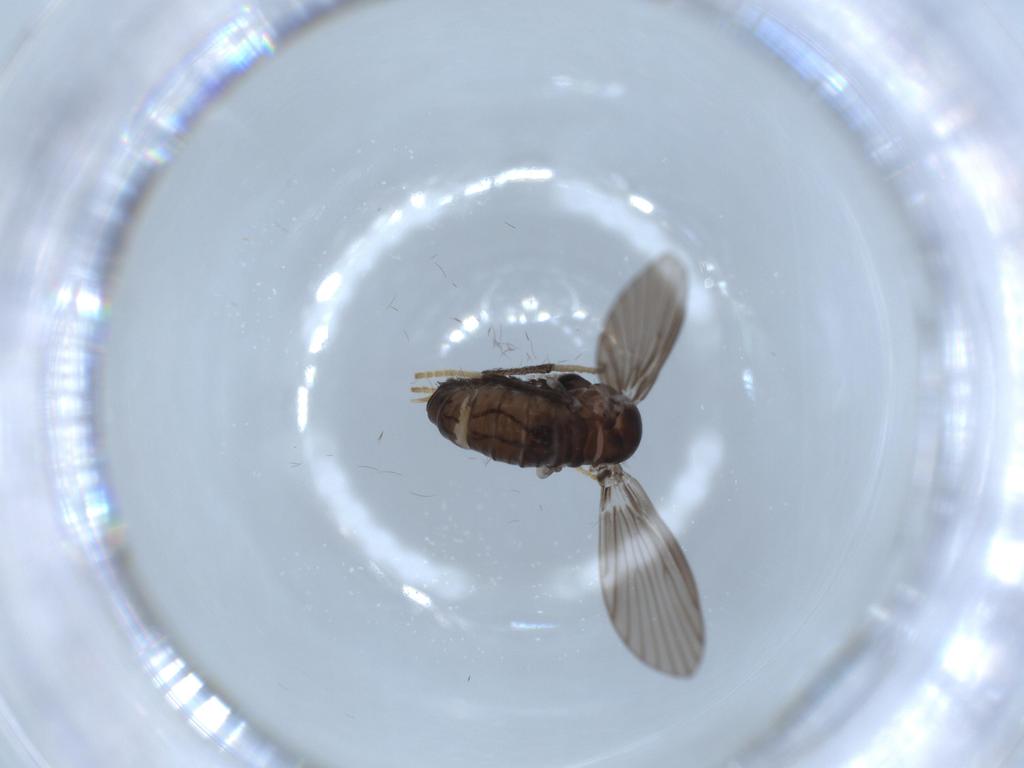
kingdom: Animalia
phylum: Arthropoda
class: Insecta
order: Diptera
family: Psychodidae
